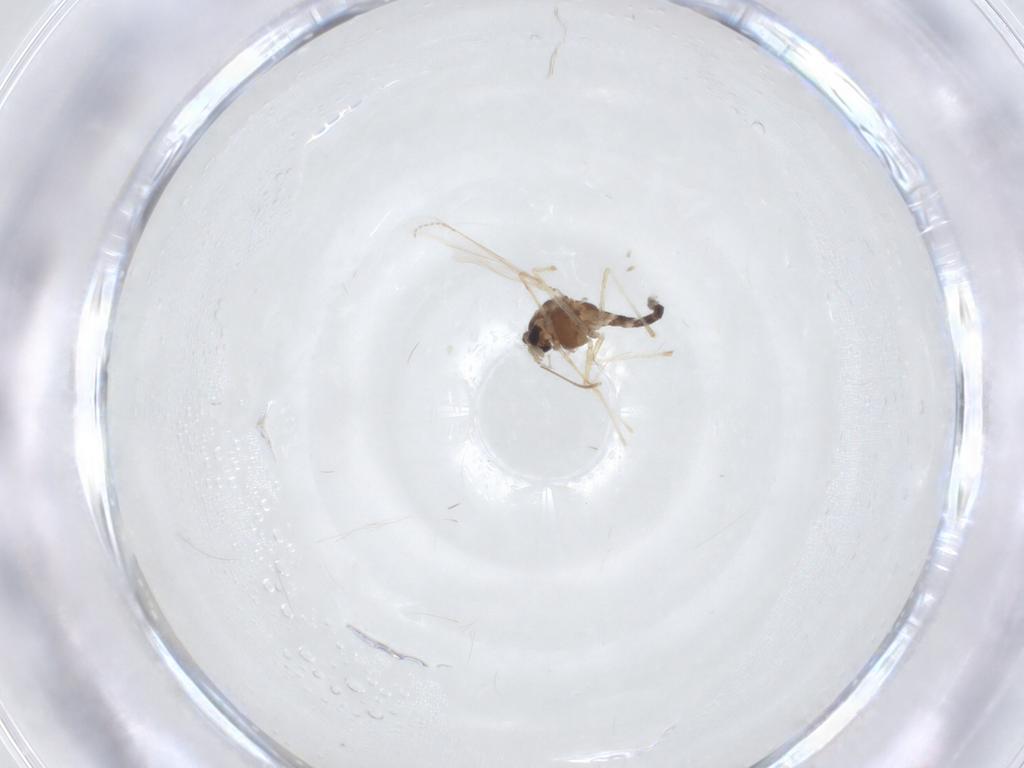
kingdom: Animalia
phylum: Arthropoda
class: Insecta
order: Diptera
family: Chironomidae
